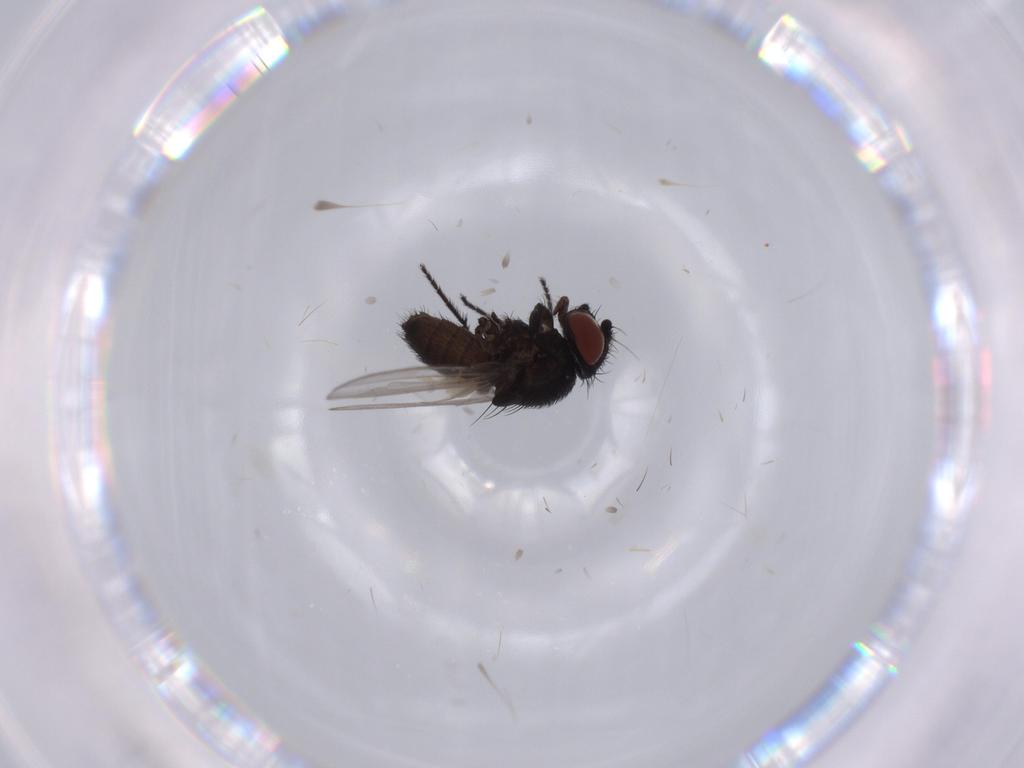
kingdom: Animalia
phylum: Arthropoda
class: Insecta
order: Diptera
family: Milichiidae
